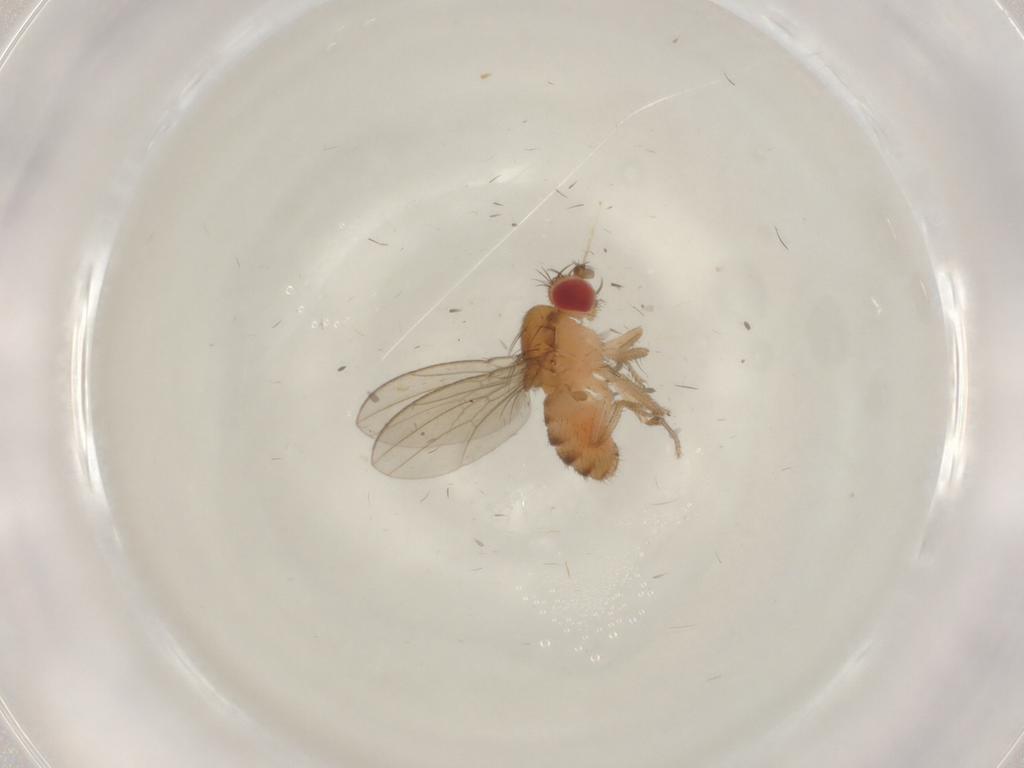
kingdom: Animalia
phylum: Arthropoda
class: Insecta
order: Diptera
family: Drosophilidae
